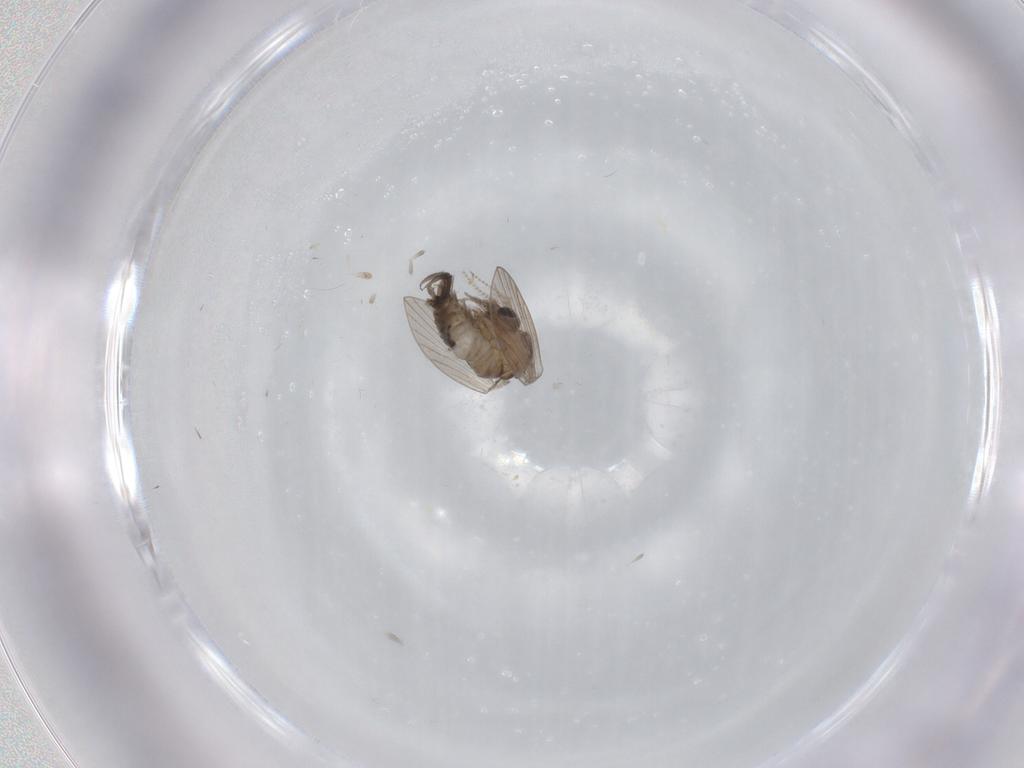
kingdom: Animalia
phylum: Arthropoda
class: Insecta
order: Diptera
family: Psychodidae
